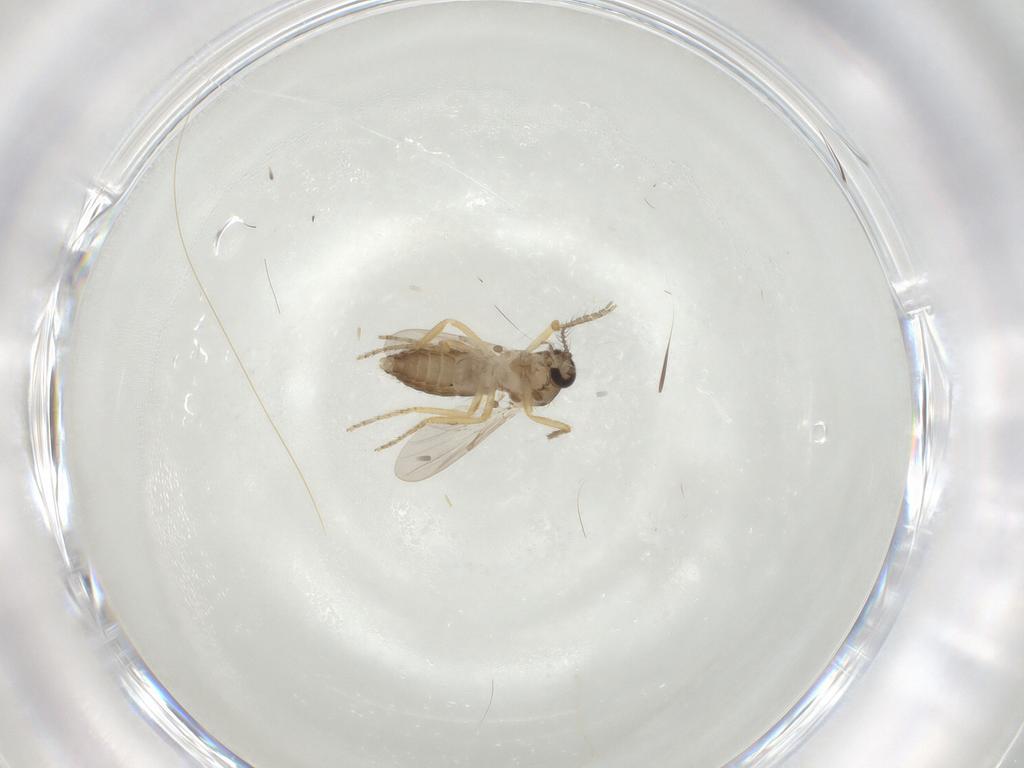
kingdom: Animalia
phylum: Arthropoda
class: Insecta
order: Diptera
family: Ceratopogonidae
